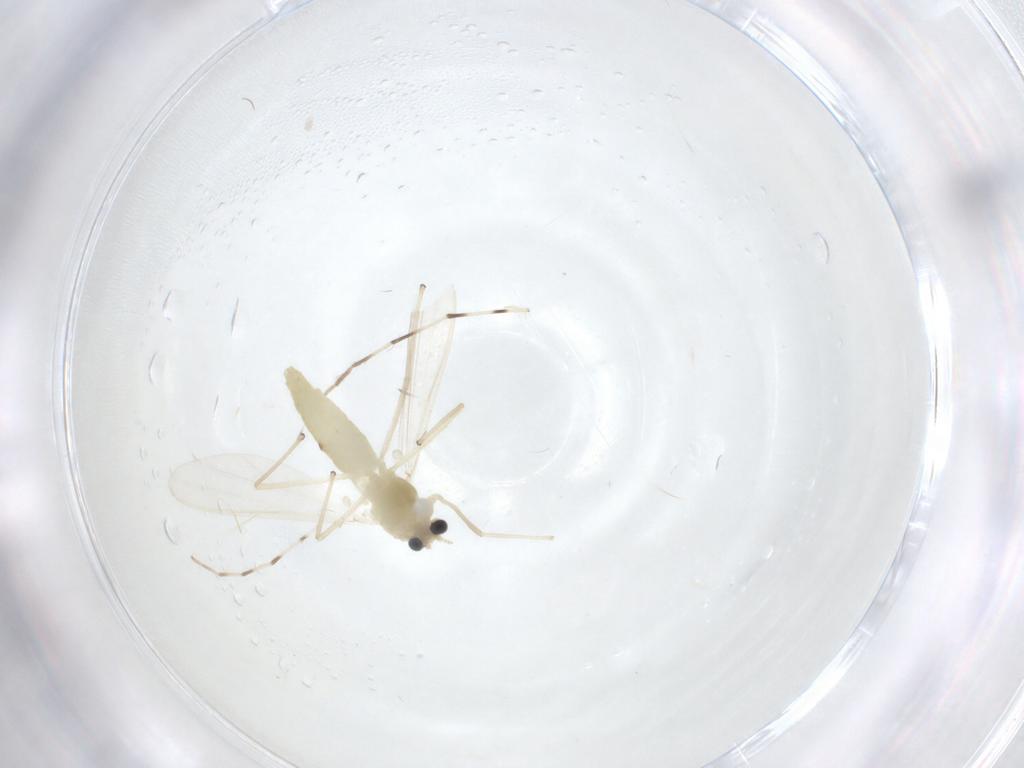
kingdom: Animalia
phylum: Arthropoda
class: Insecta
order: Diptera
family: Chironomidae
